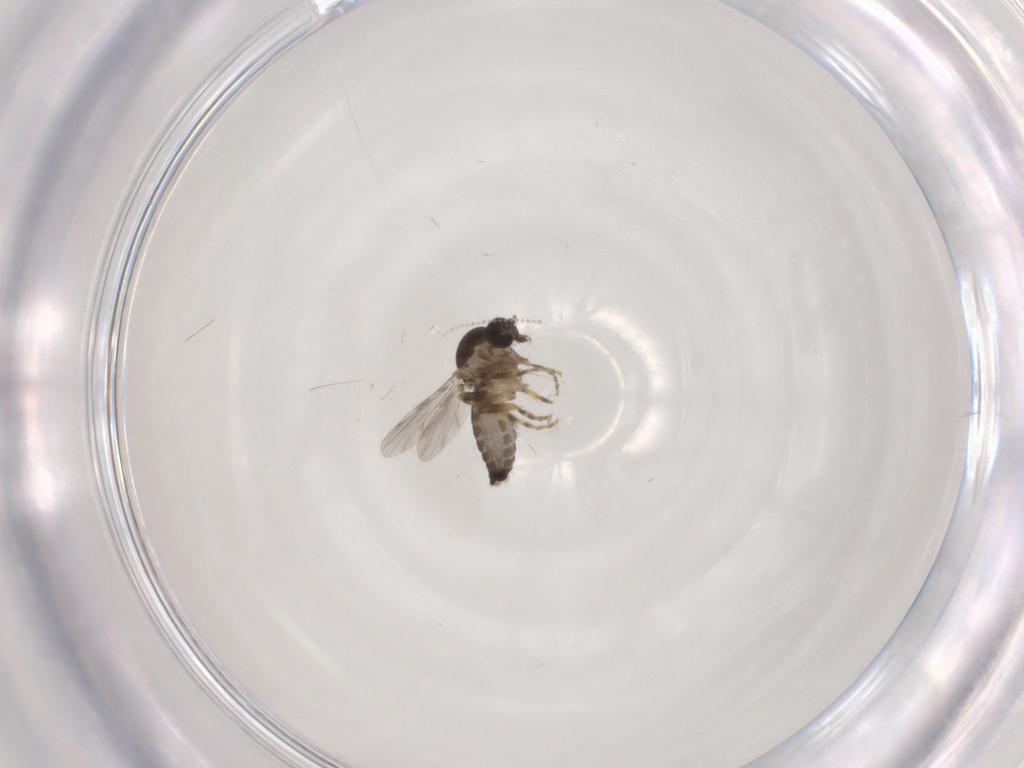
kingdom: Animalia
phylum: Arthropoda
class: Insecta
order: Diptera
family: Ceratopogonidae
